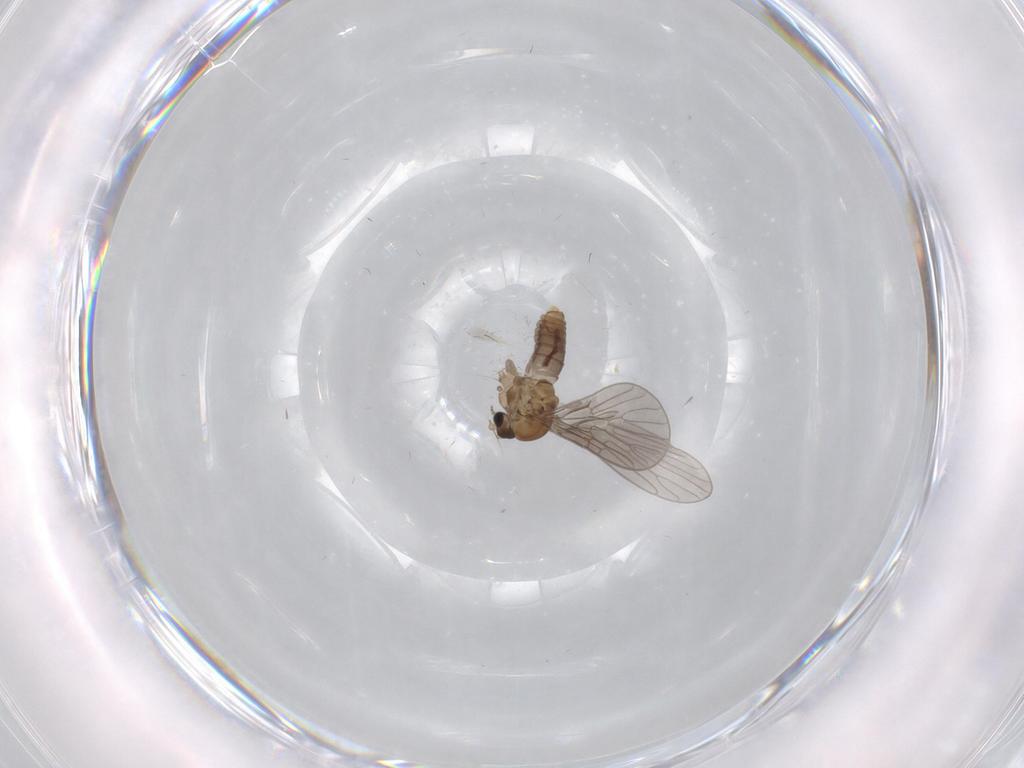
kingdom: Animalia
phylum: Arthropoda
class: Insecta
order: Diptera
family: Psychodidae
